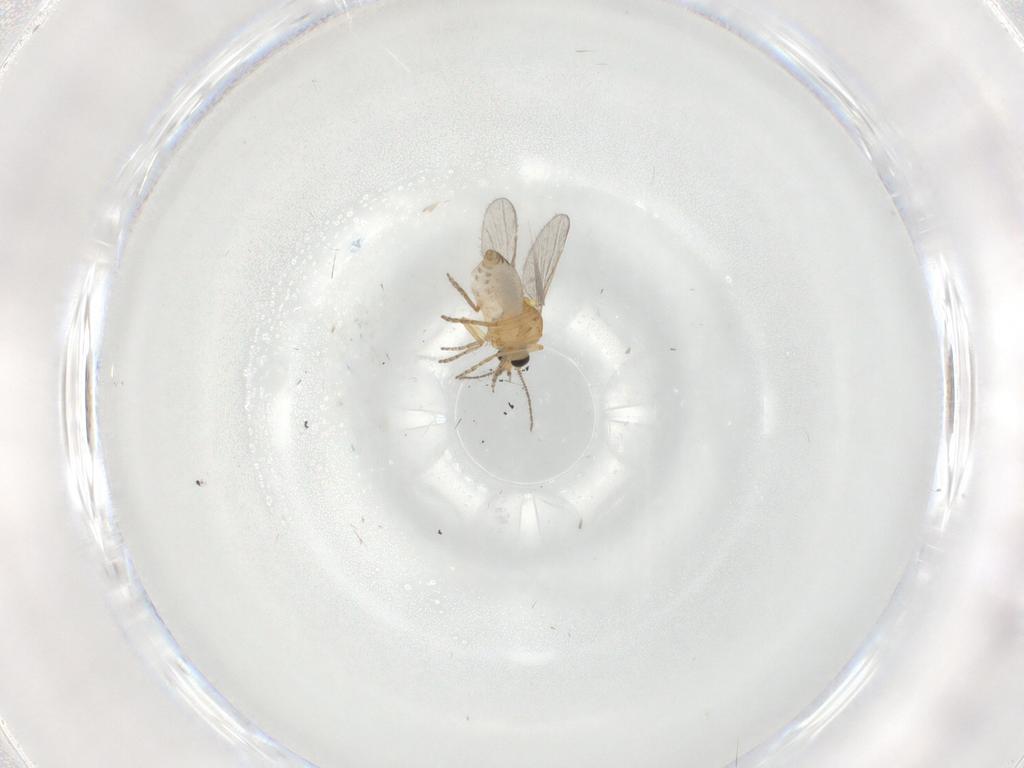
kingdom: Animalia
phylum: Arthropoda
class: Insecta
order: Diptera
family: Ceratopogonidae
